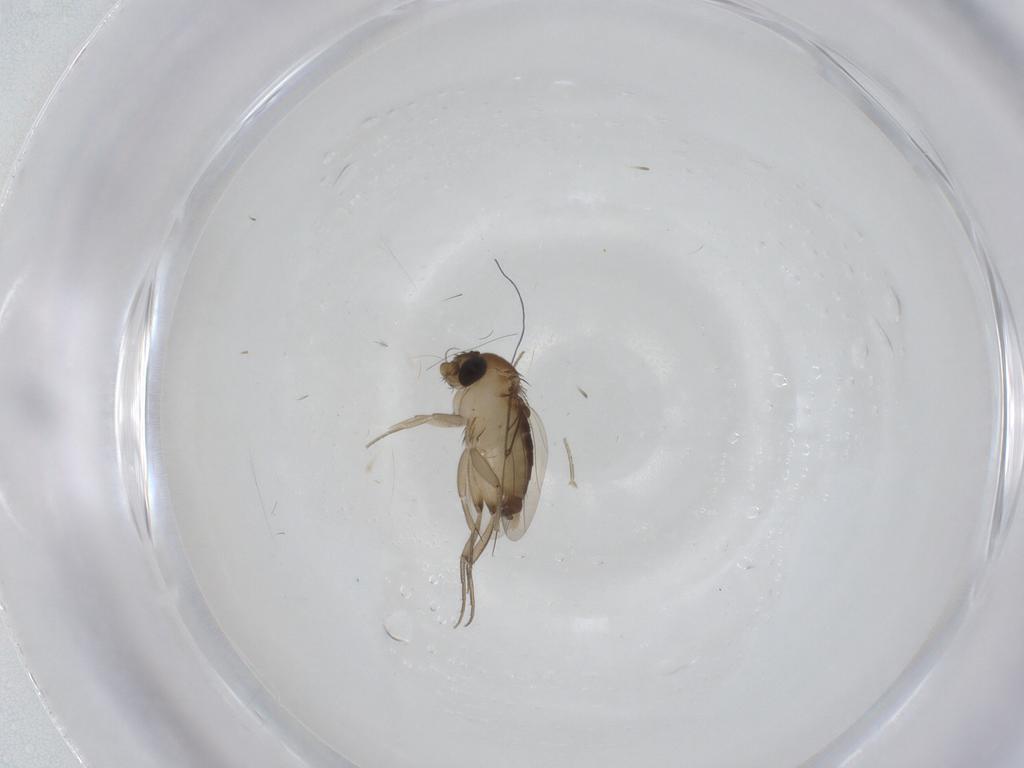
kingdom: Animalia
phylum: Arthropoda
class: Insecta
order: Diptera
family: Phoridae
